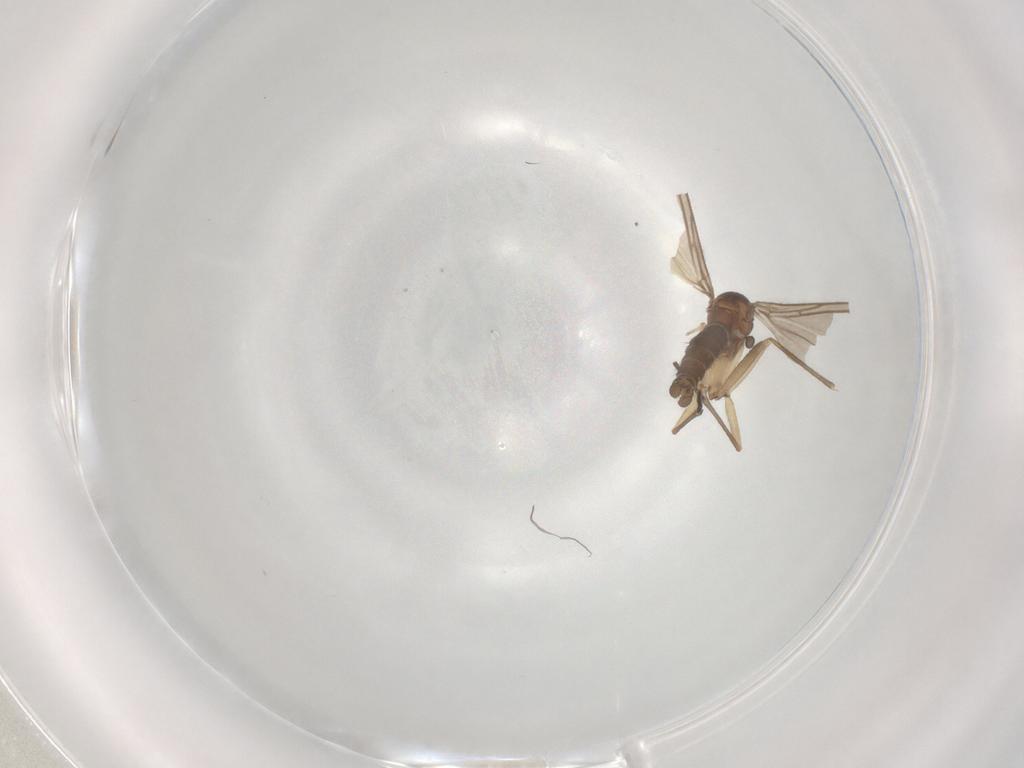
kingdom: Animalia
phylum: Arthropoda
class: Insecta
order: Diptera
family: Sciaridae
